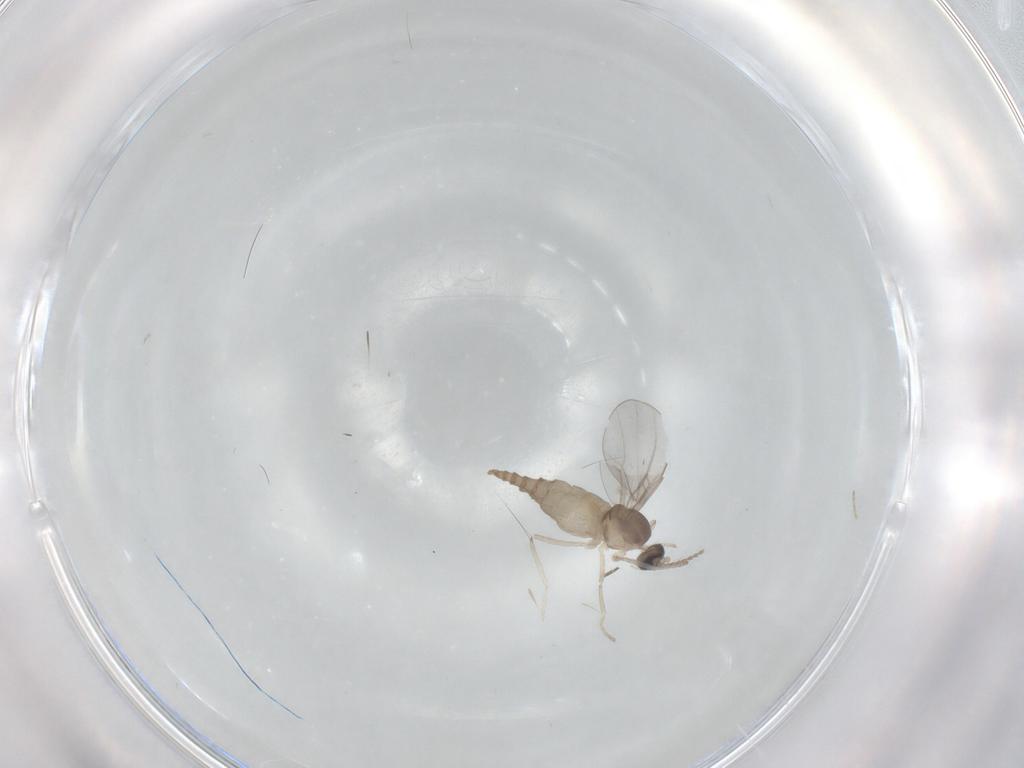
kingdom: Animalia
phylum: Arthropoda
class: Insecta
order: Diptera
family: Cecidomyiidae
